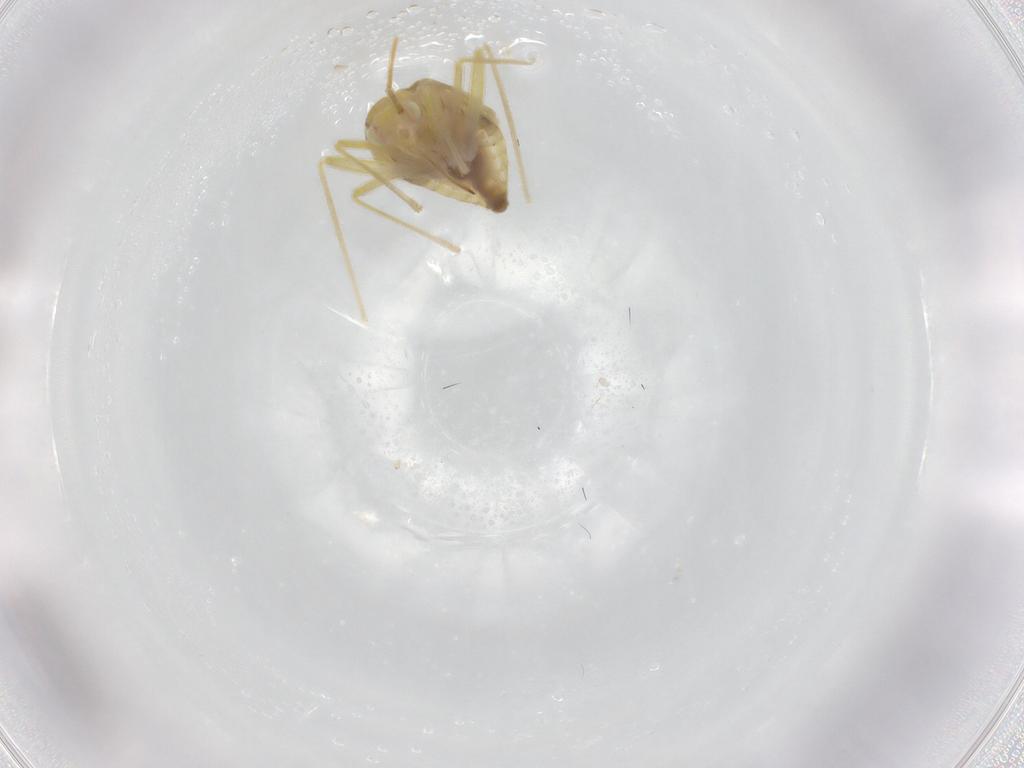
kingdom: Animalia
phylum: Arthropoda
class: Insecta
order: Hemiptera
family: Miridae
